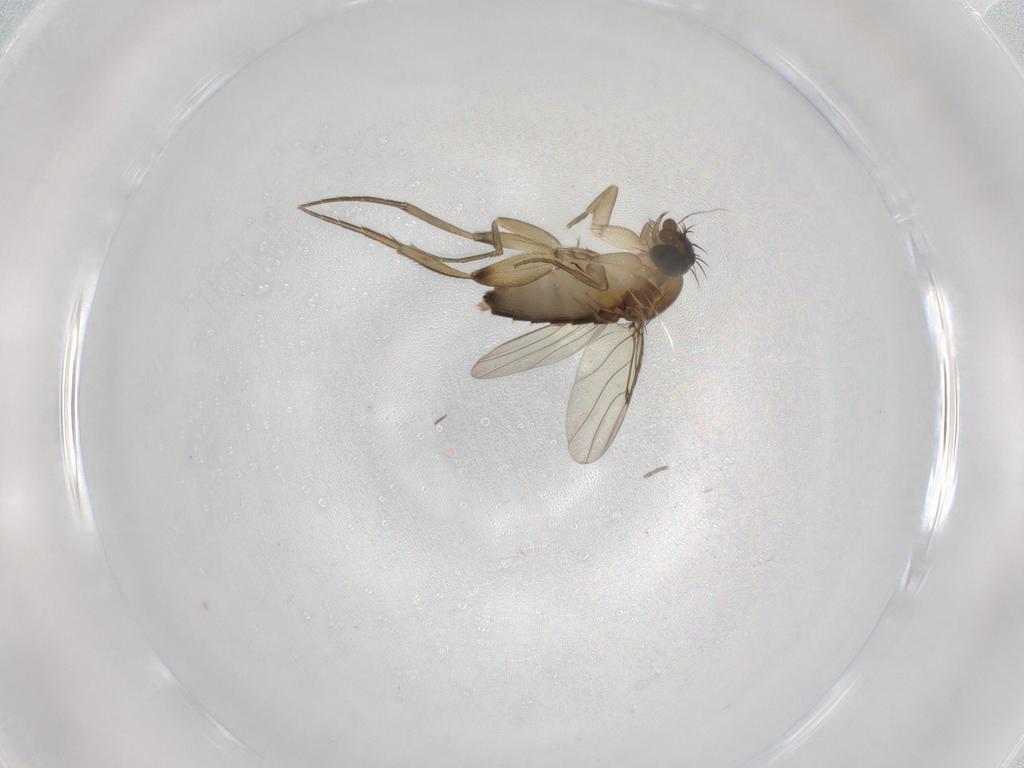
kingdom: Animalia
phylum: Arthropoda
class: Insecta
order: Diptera
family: Phoridae
